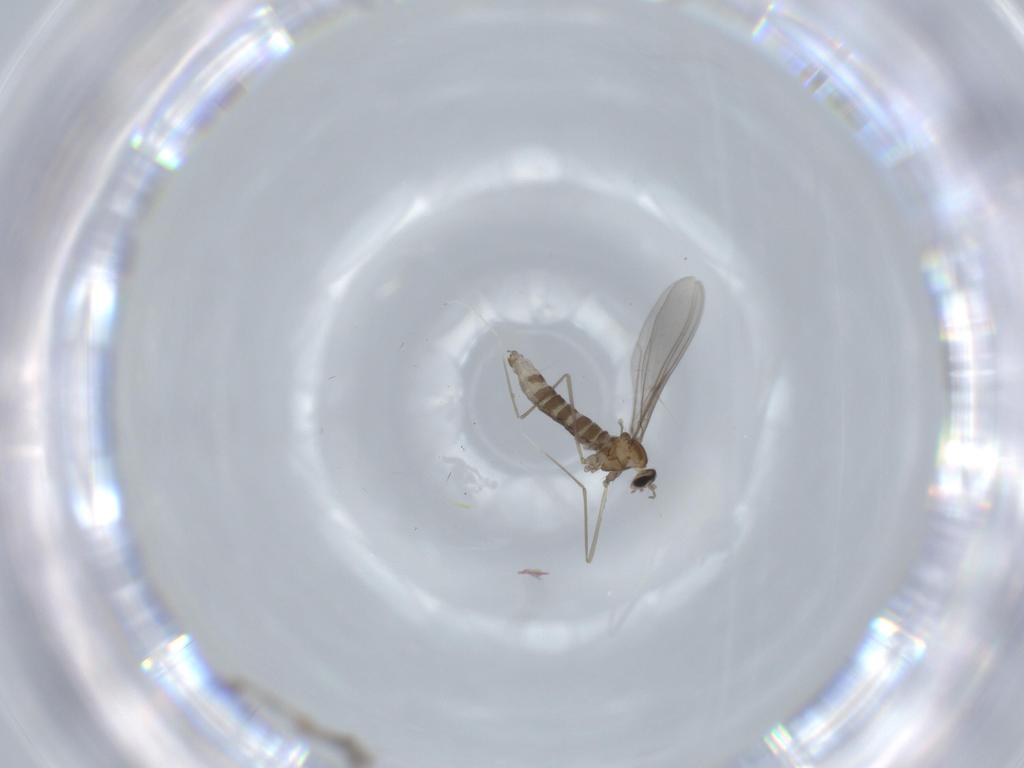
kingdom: Animalia
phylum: Arthropoda
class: Insecta
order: Diptera
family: Cecidomyiidae
